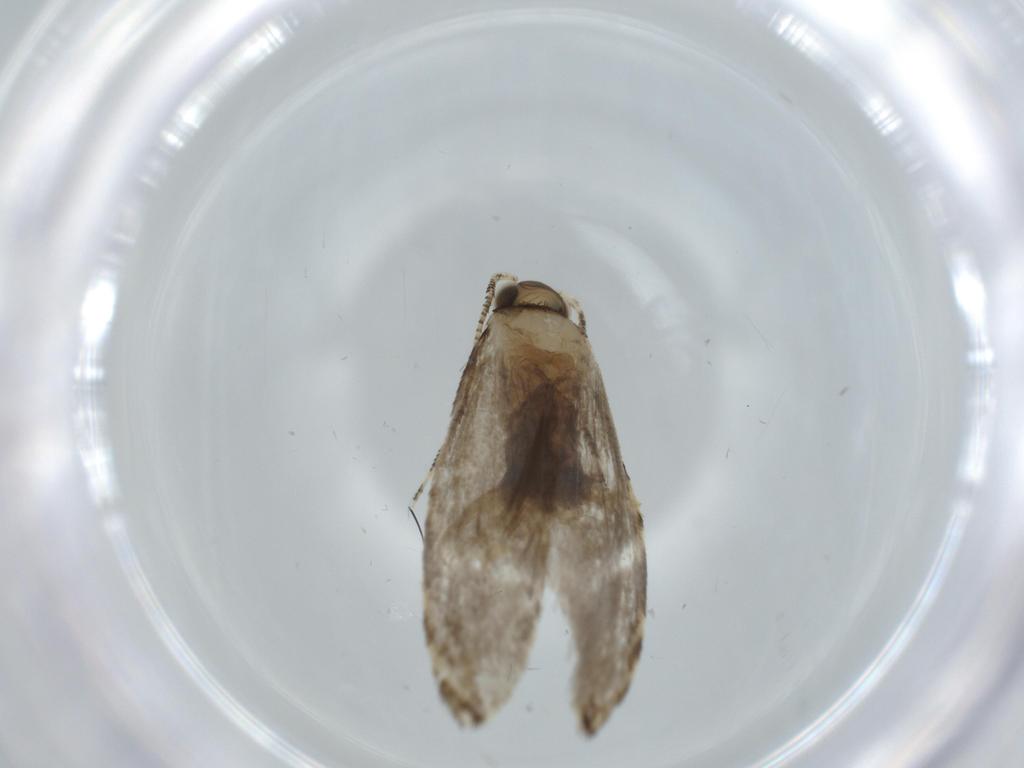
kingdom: Animalia
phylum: Arthropoda
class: Insecta
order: Lepidoptera
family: Tineidae
